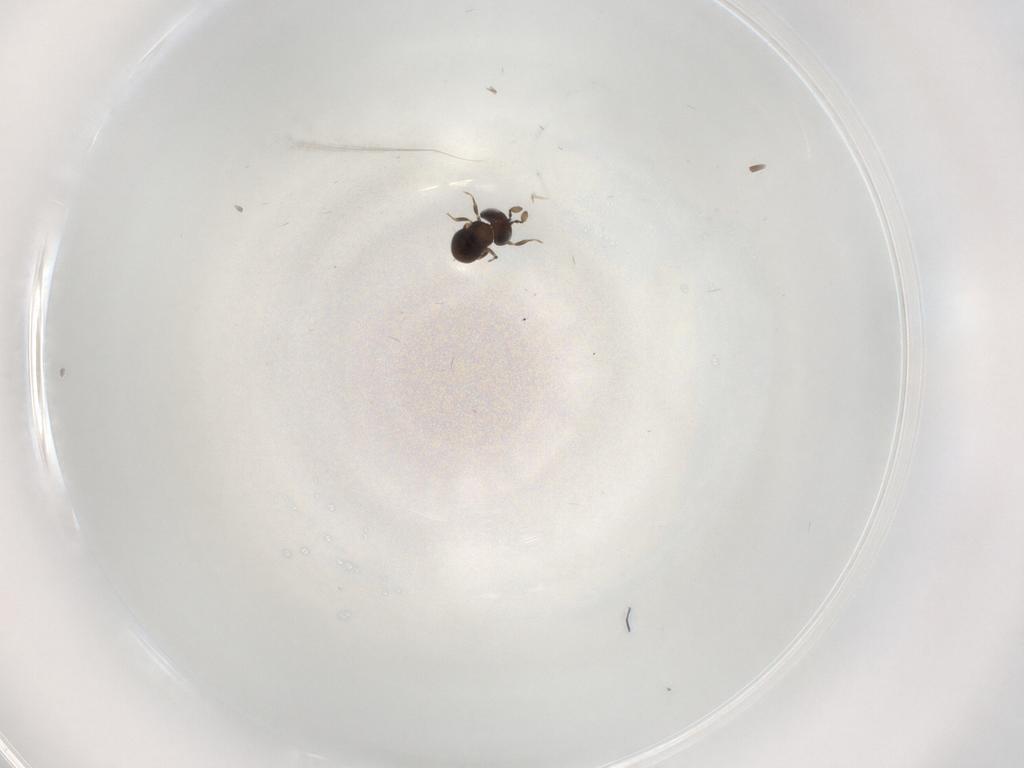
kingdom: Animalia
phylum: Arthropoda
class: Insecta
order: Hymenoptera
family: Scelionidae
